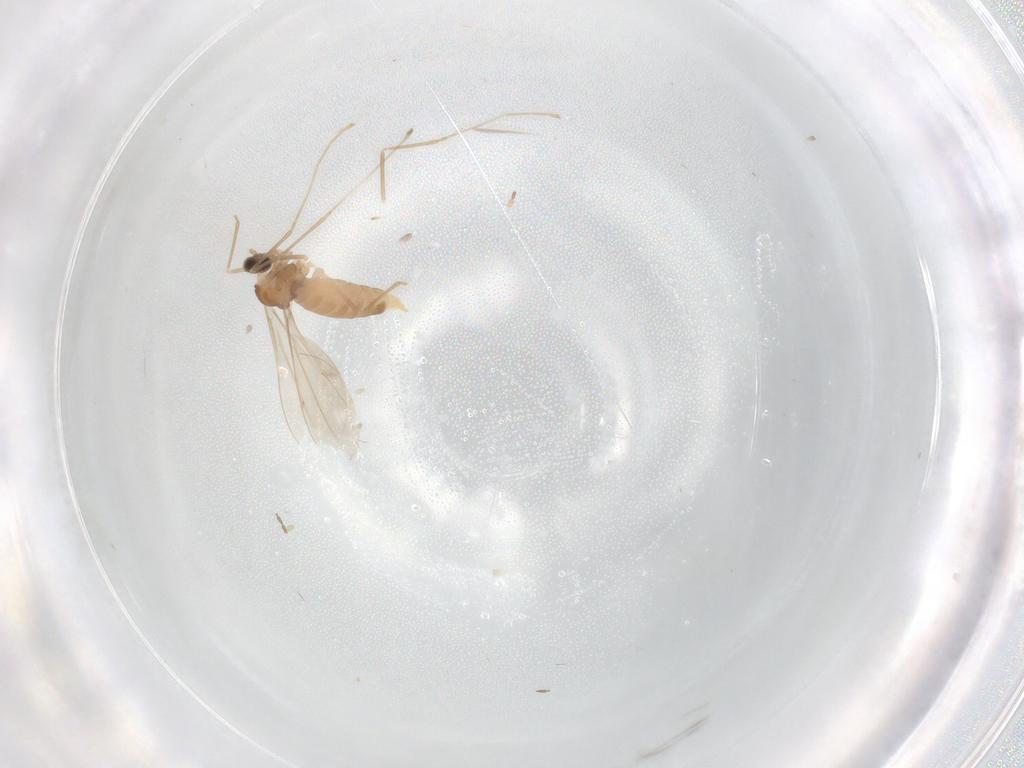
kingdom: Animalia
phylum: Arthropoda
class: Insecta
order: Diptera
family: Cecidomyiidae
